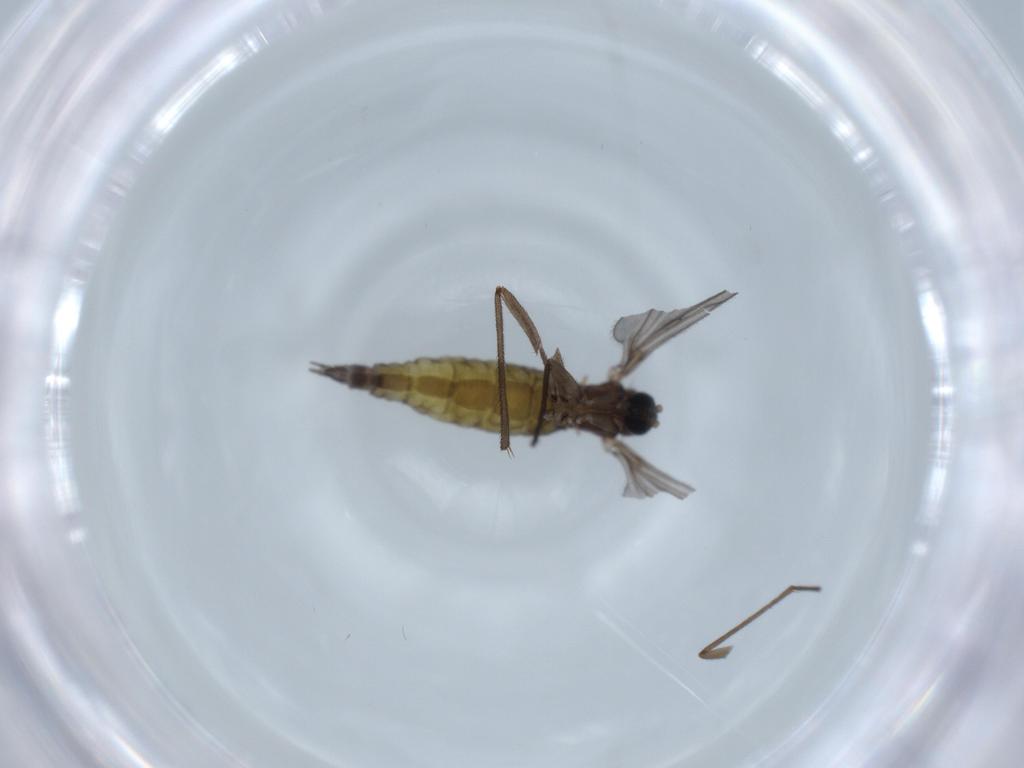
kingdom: Animalia
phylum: Arthropoda
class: Insecta
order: Diptera
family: Sciaridae
